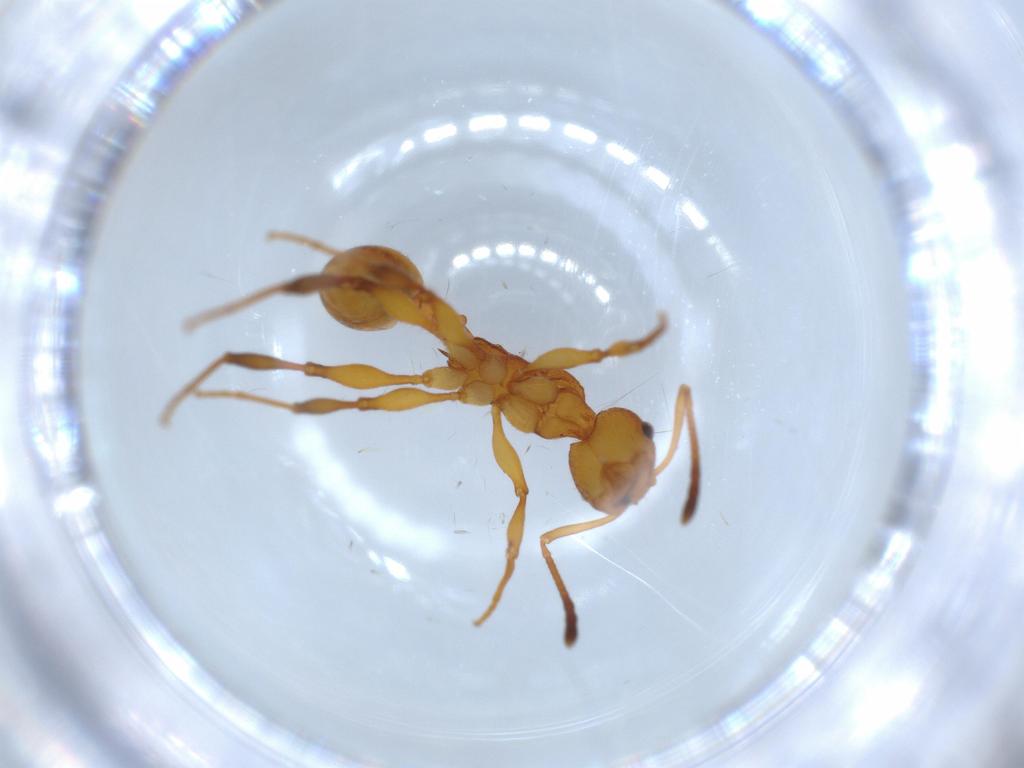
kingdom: Animalia
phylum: Arthropoda
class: Insecta
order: Hymenoptera
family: Formicidae
